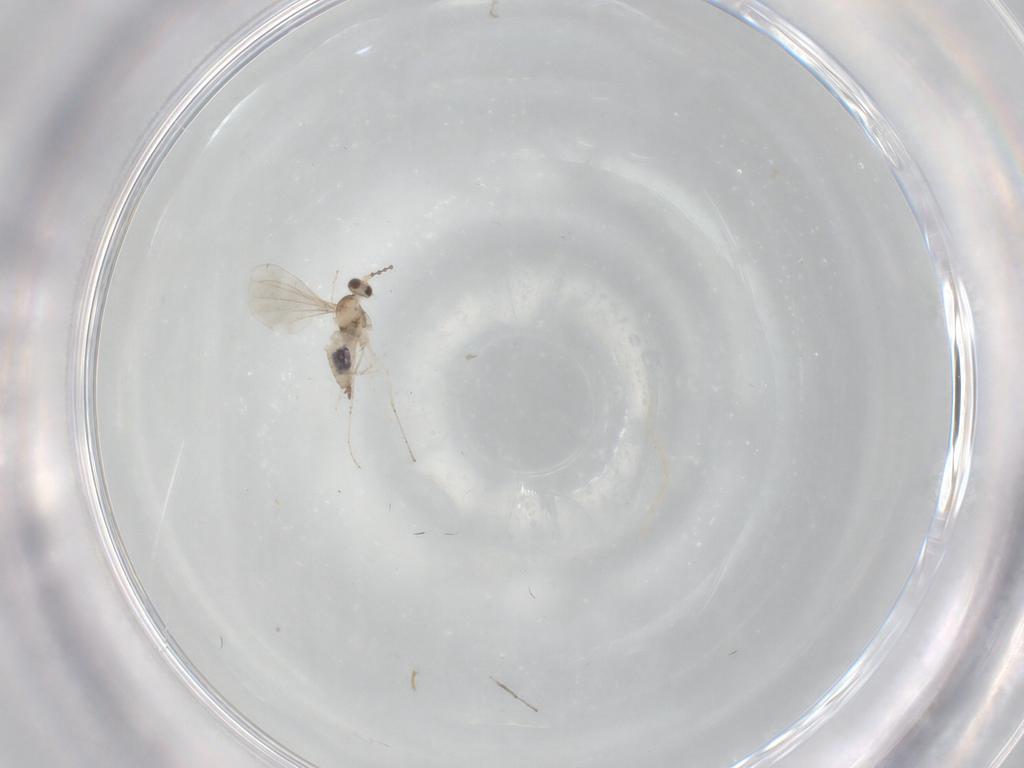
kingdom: Animalia
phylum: Arthropoda
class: Insecta
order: Diptera
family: Cecidomyiidae
